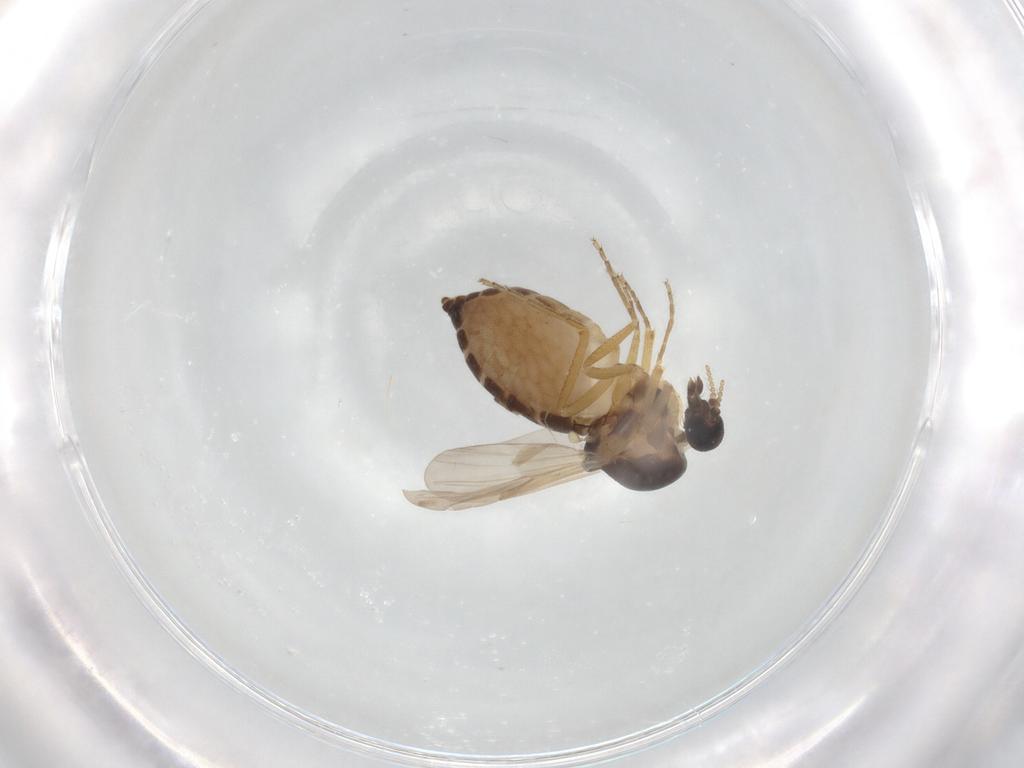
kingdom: Animalia
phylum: Arthropoda
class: Insecta
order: Diptera
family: Ceratopogonidae
